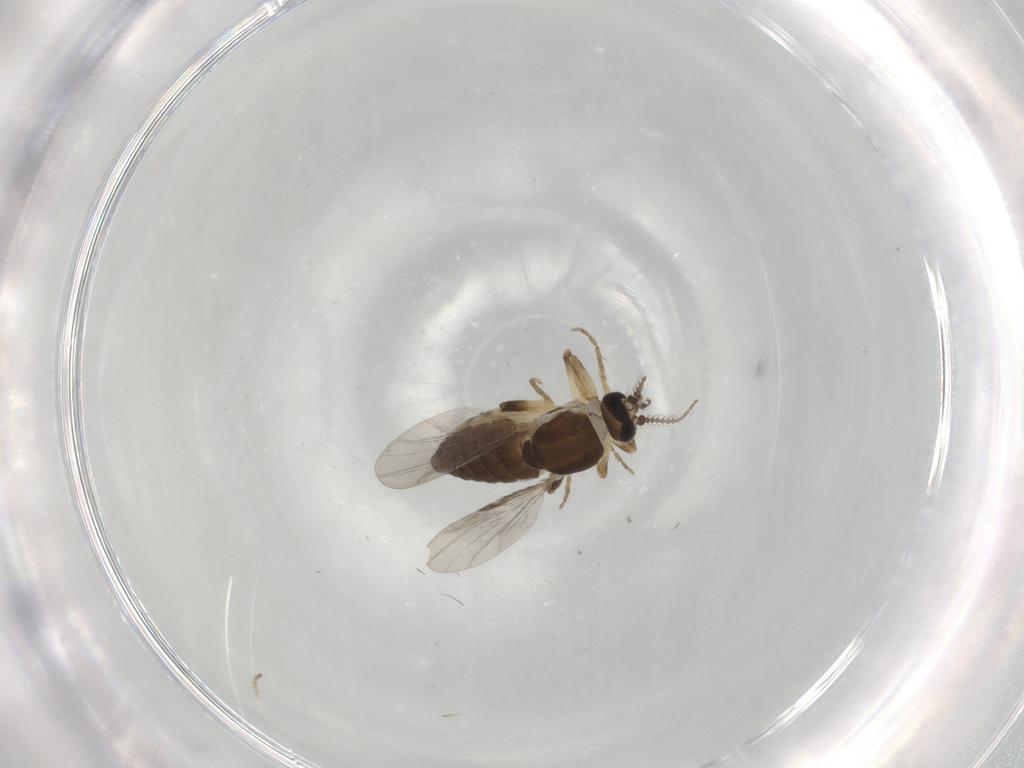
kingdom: Animalia
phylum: Arthropoda
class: Insecta
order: Diptera
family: Ceratopogonidae
